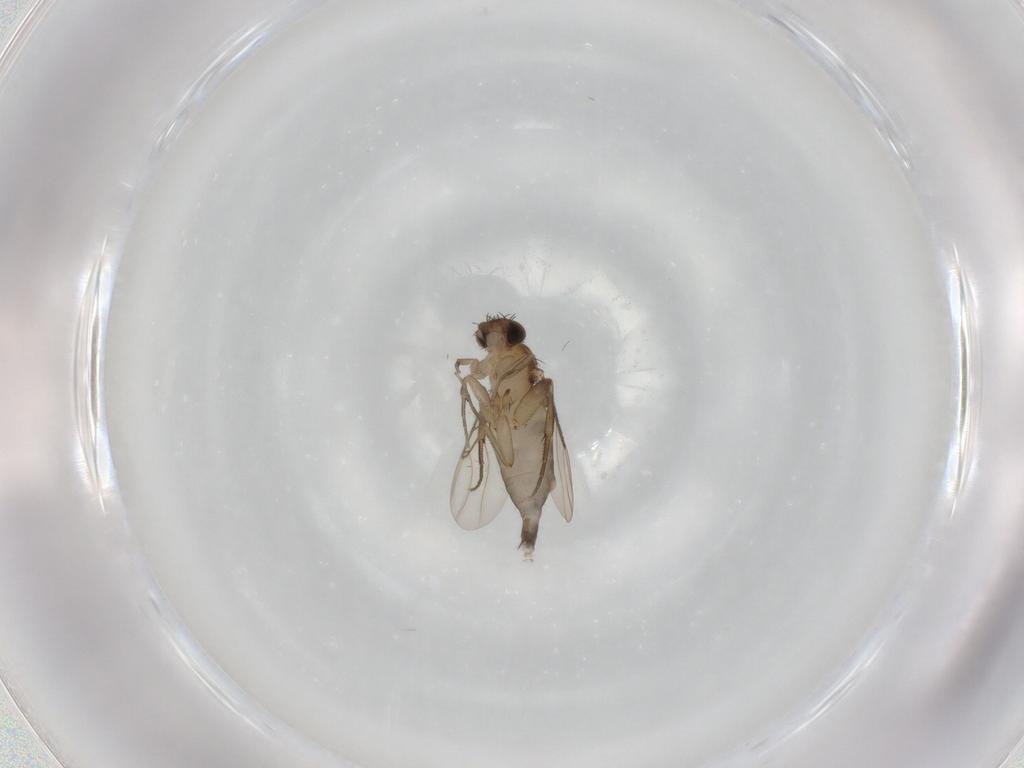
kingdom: Animalia
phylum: Arthropoda
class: Insecta
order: Diptera
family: Phoridae
